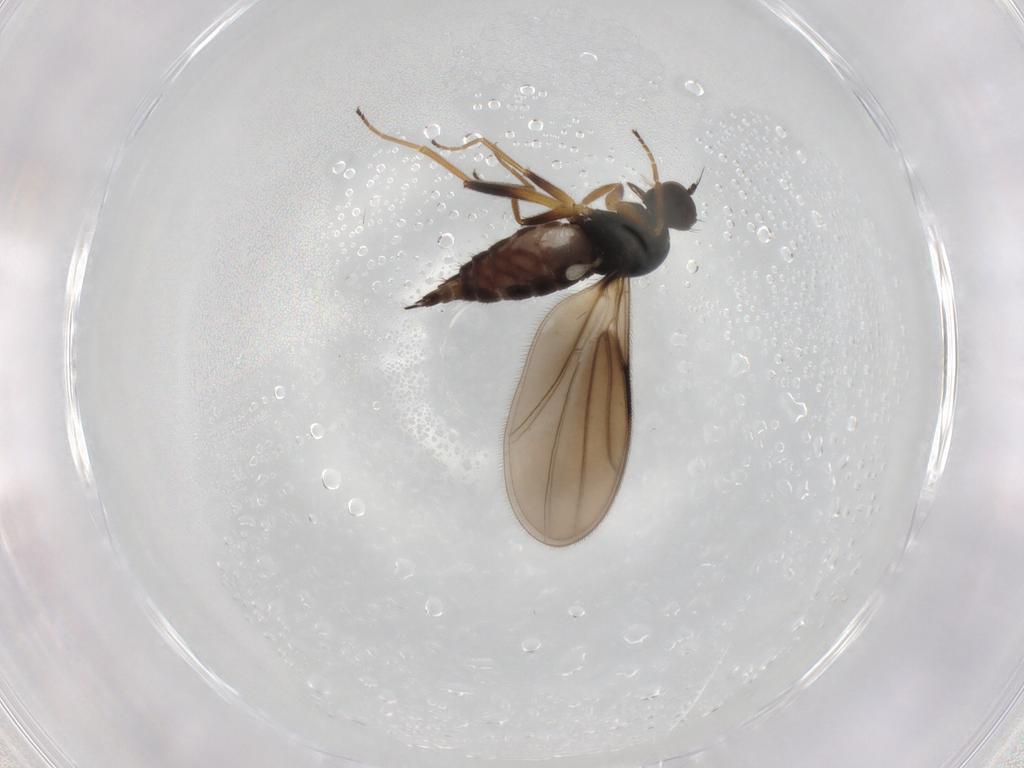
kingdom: Animalia
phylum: Arthropoda
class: Insecta
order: Diptera
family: Hybotidae
